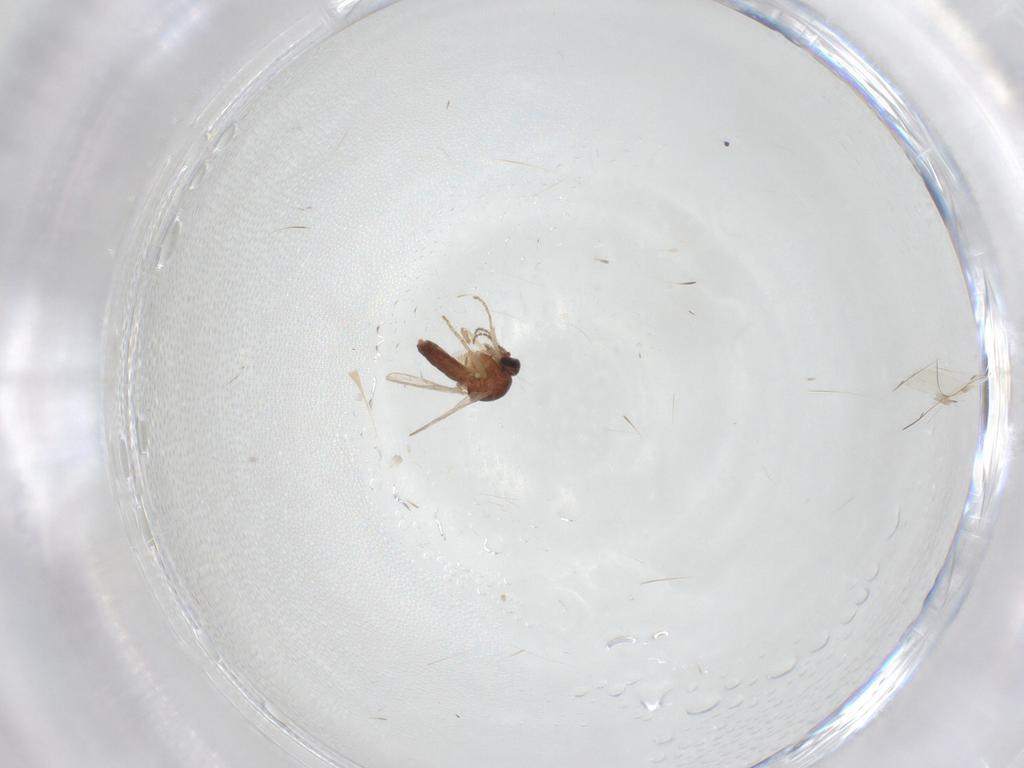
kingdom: Animalia
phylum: Arthropoda
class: Insecta
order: Diptera
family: Ceratopogonidae
